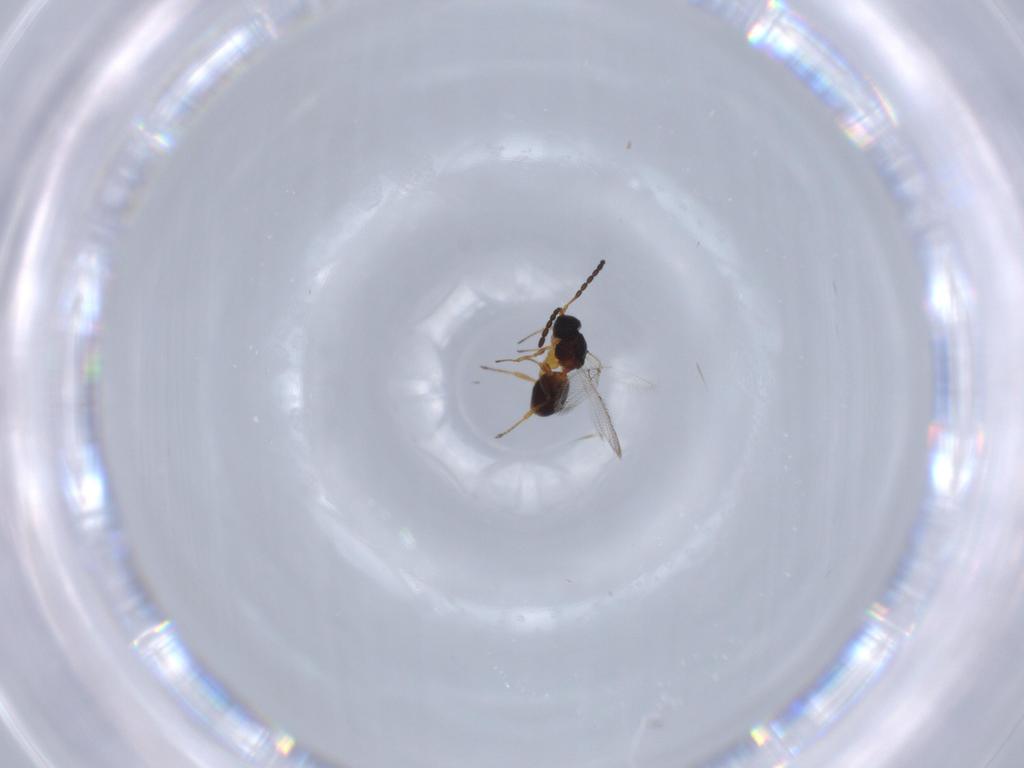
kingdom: Animalia
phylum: Arthropoda
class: Insecta
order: Hymenoptera
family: Figitidae
